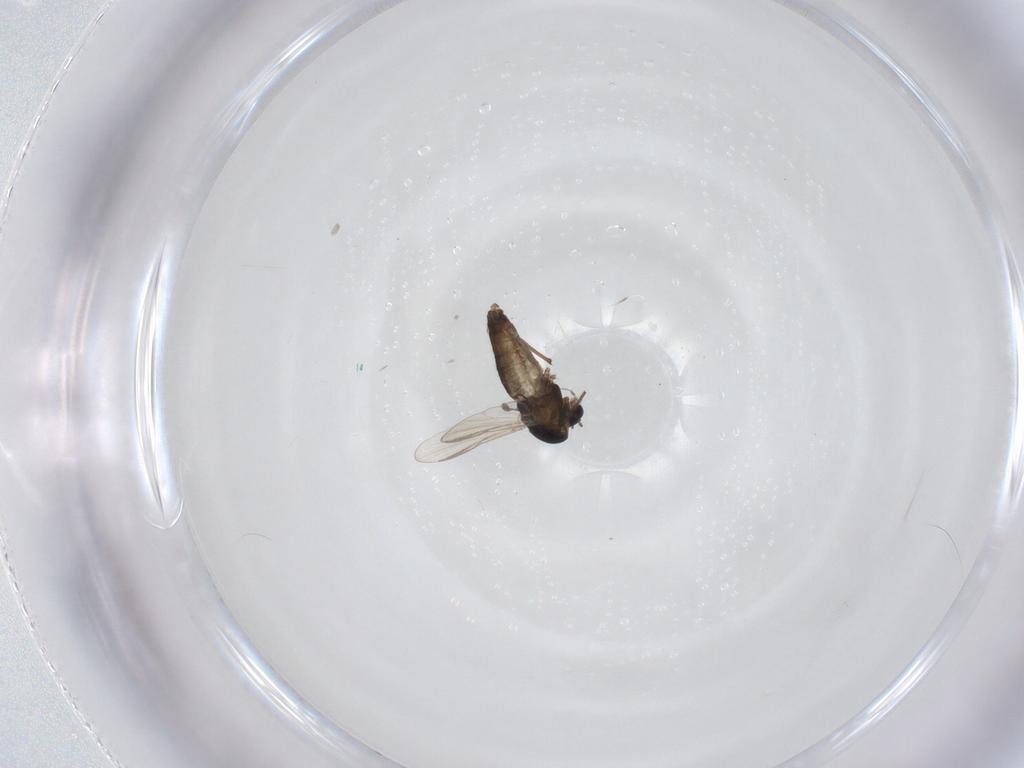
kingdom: Animalia
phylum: Arthropoda
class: Insecta
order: Diptera
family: Chironomidae
